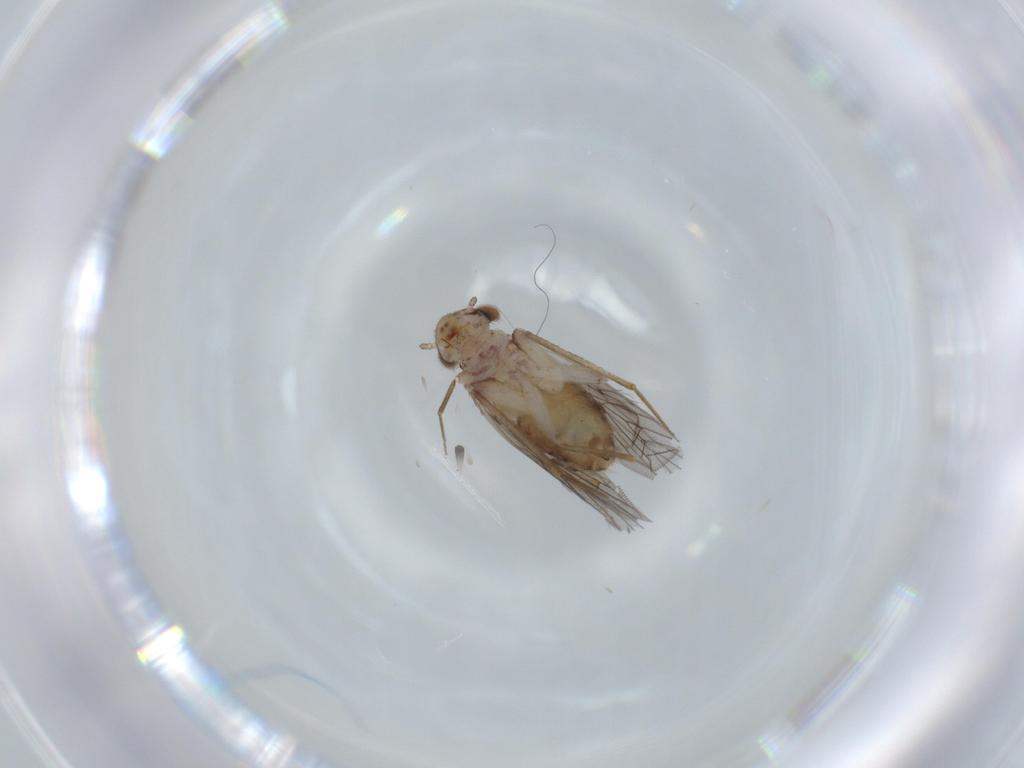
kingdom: Animalia
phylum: Arthropoda
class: Insecta
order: Psocodea
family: Lepidopsocidae
